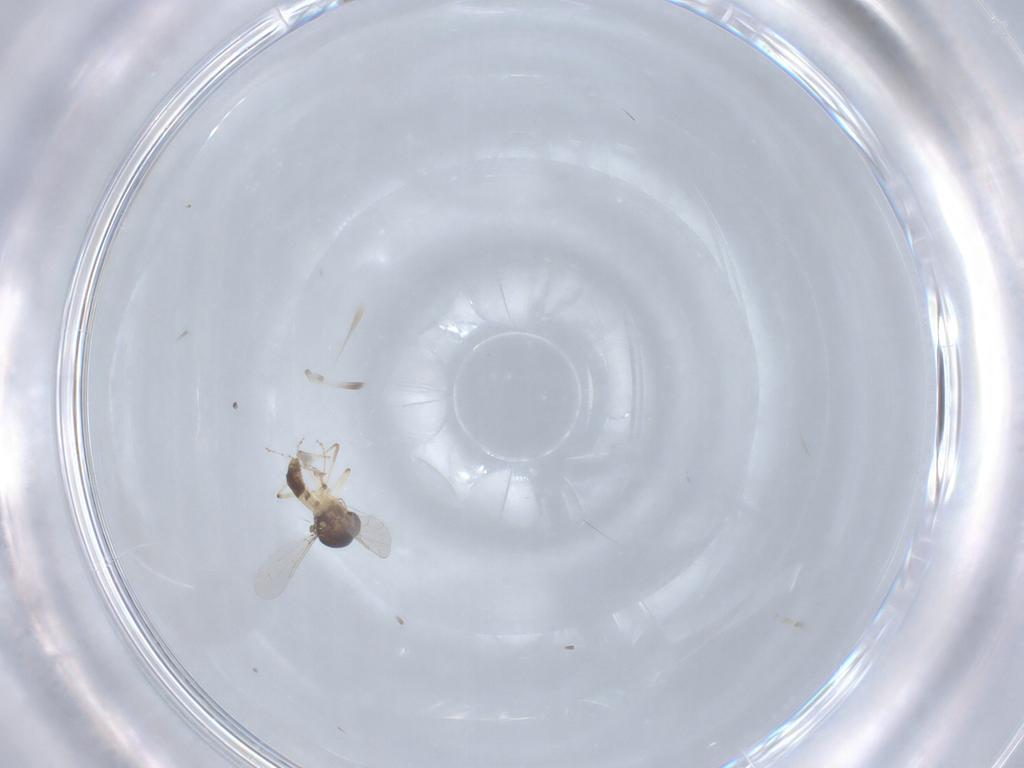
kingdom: Animalia
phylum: Arthropoda
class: Insecta
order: Diptera
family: Ceratopogonidae
